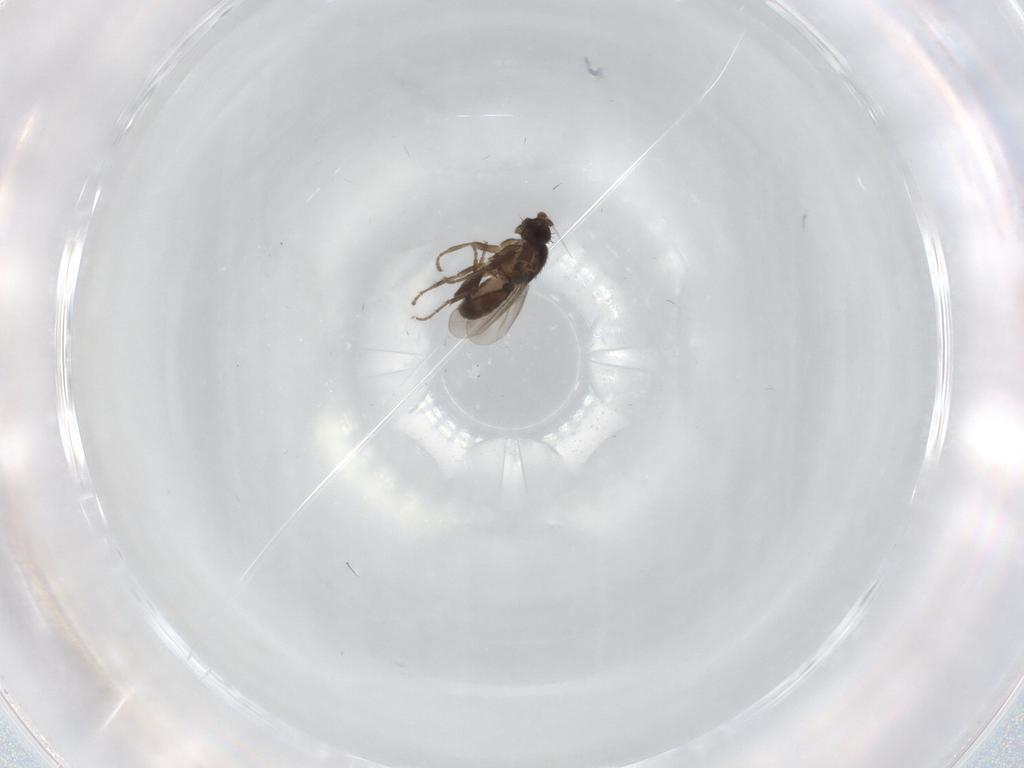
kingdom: Animalia
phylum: Arthropoda
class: Insecta
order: Diptera
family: Sphaeroceridae
